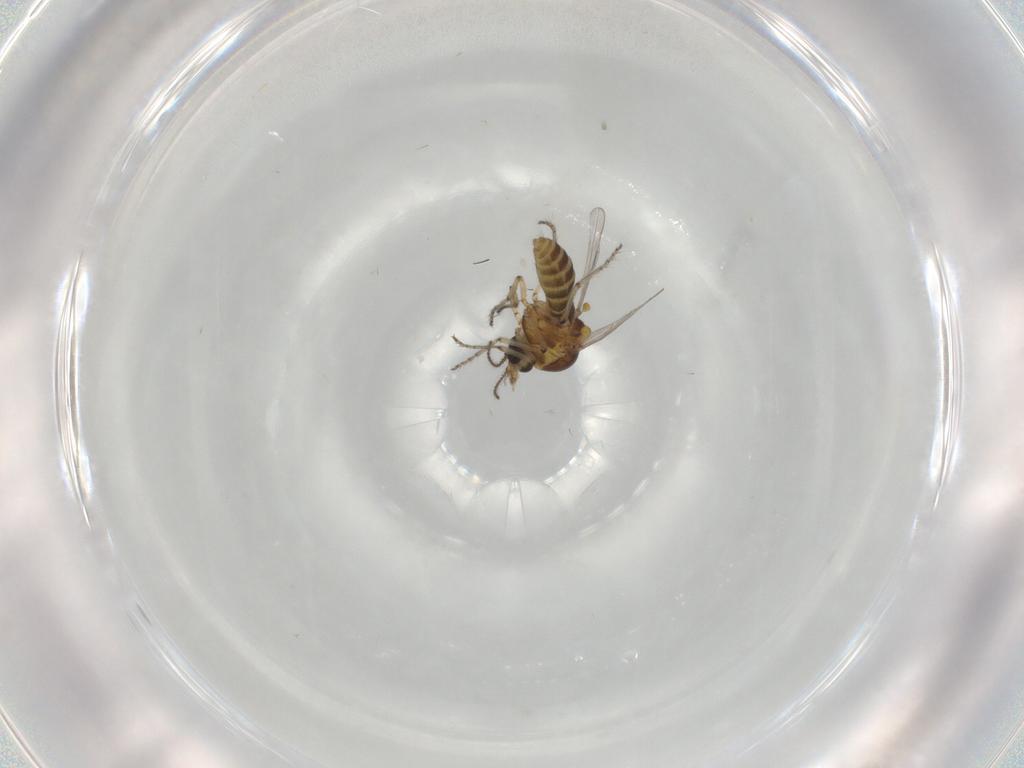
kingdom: Animalia
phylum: Arthropoda
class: Insecta
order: Diptera
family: Ceratopogonidae
